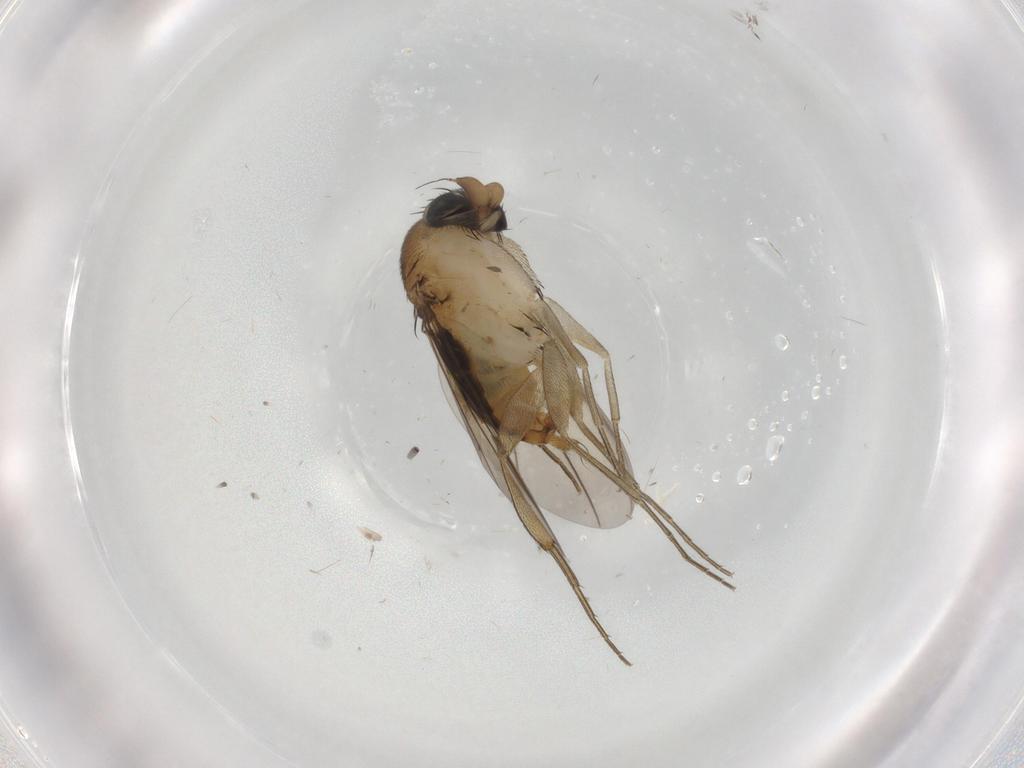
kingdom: Animalia
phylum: Arthropoda
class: Insecta
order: Diptera
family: Phoridae
